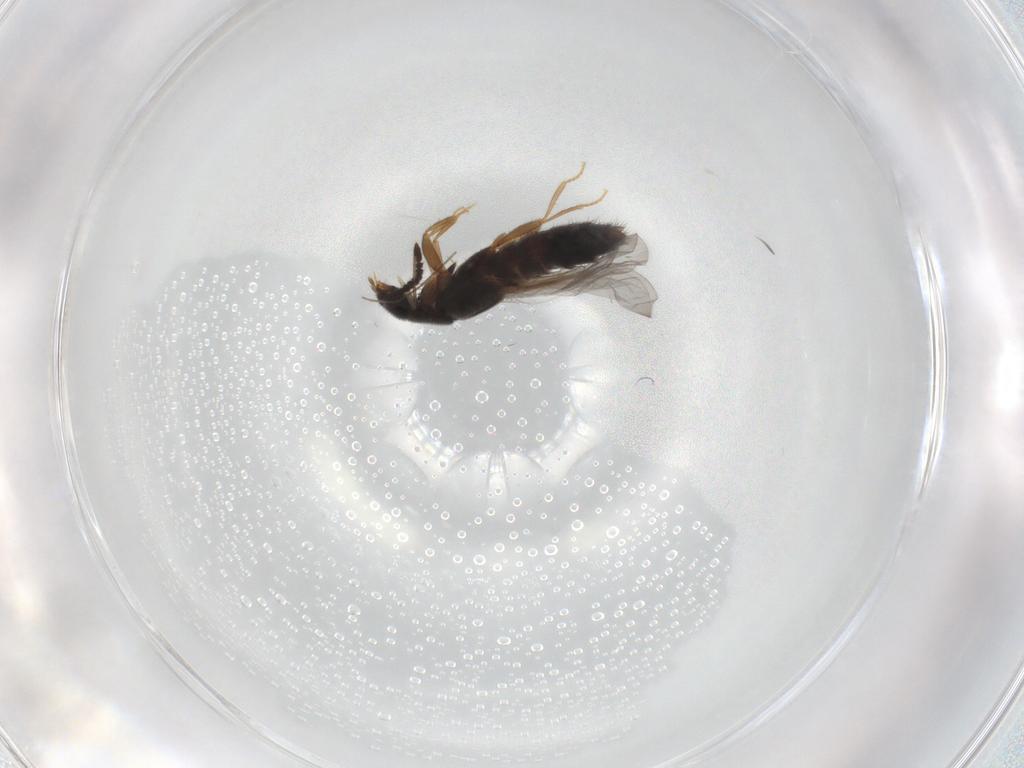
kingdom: Animalia
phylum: Arthropoda
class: Insecta
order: Coleoptera
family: Staphylinidae
